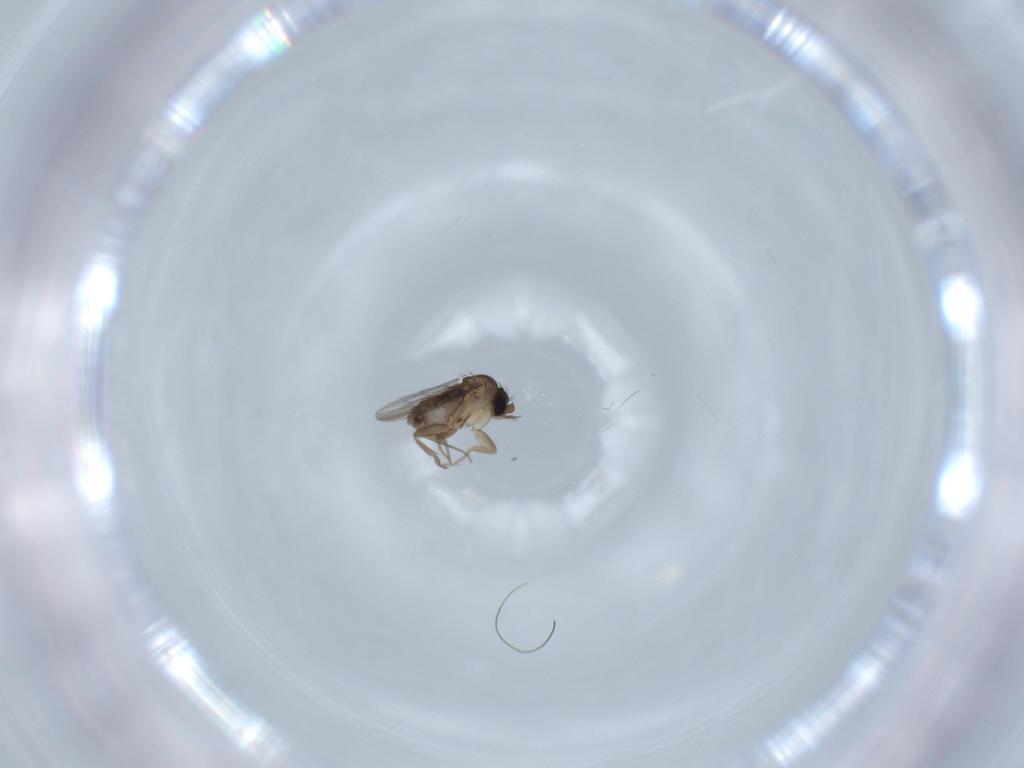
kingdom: Animalia
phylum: Arthropoda
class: Insecta
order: Diptera
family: Phoridae
